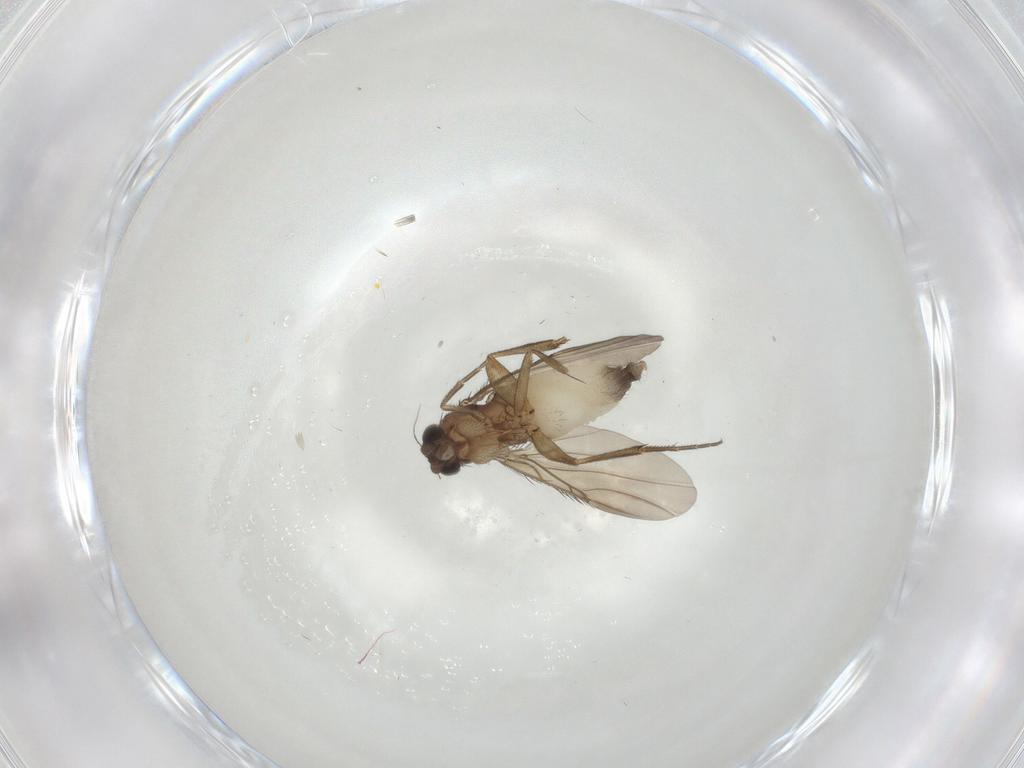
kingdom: Animalia
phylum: Arthropoda
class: Insecta
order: Diptera
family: Phoridae
